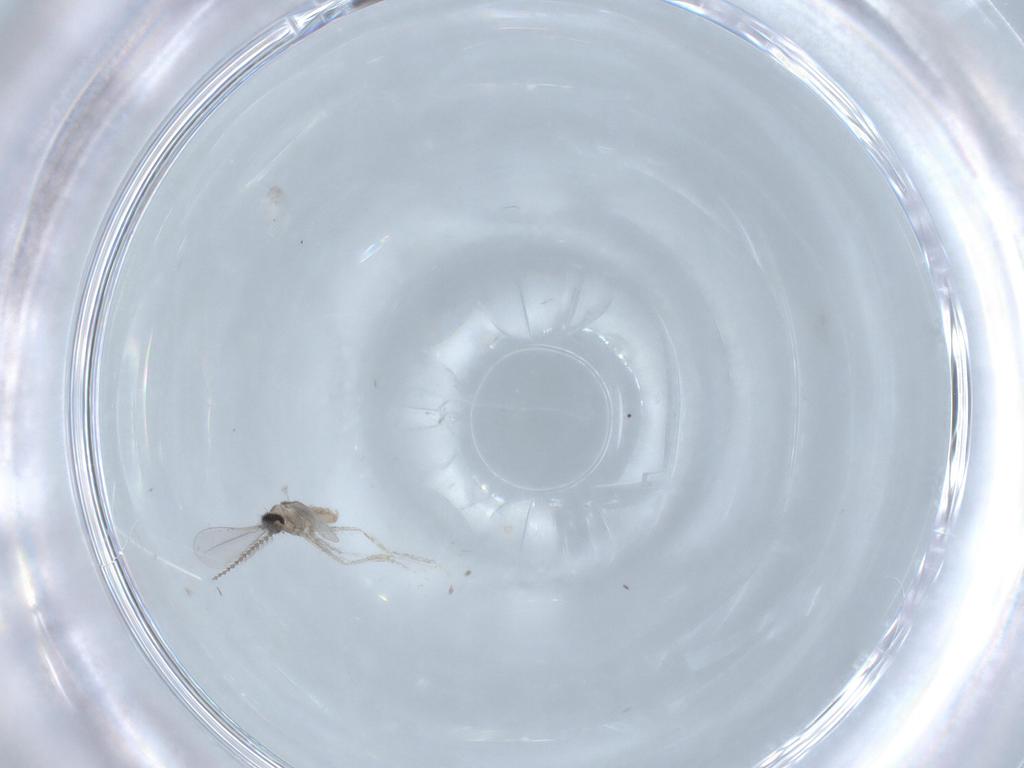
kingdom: Animalia
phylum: Arthropoda
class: Insecta
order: Diptera
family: Cecidomyiidae
